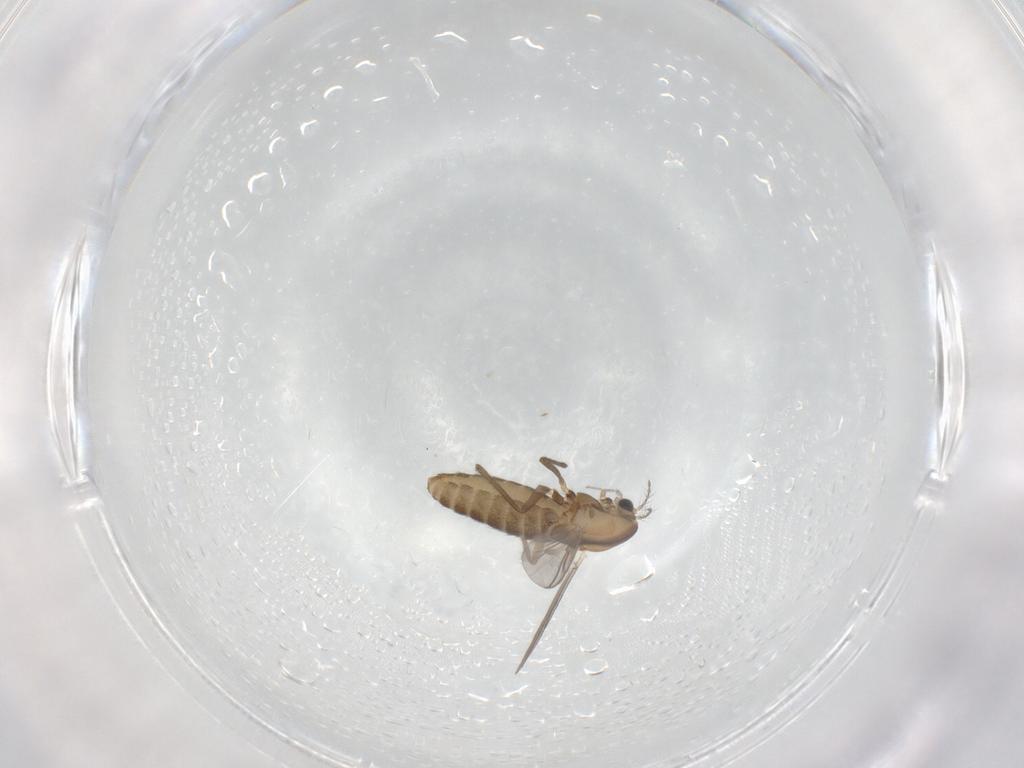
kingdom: Animalia
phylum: Arthropoda
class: Insecta
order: Diptera
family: Chironomidae
